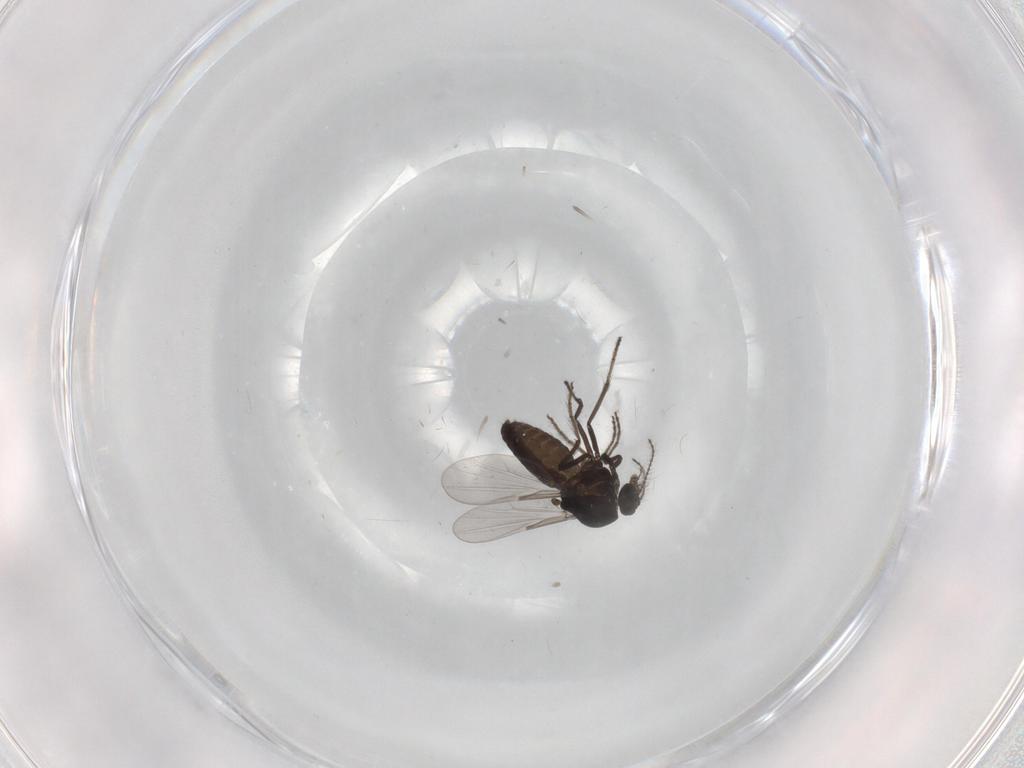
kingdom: Animalia
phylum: Arthropoda
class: Insecta
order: Diptera
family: Ceratopogonidae
